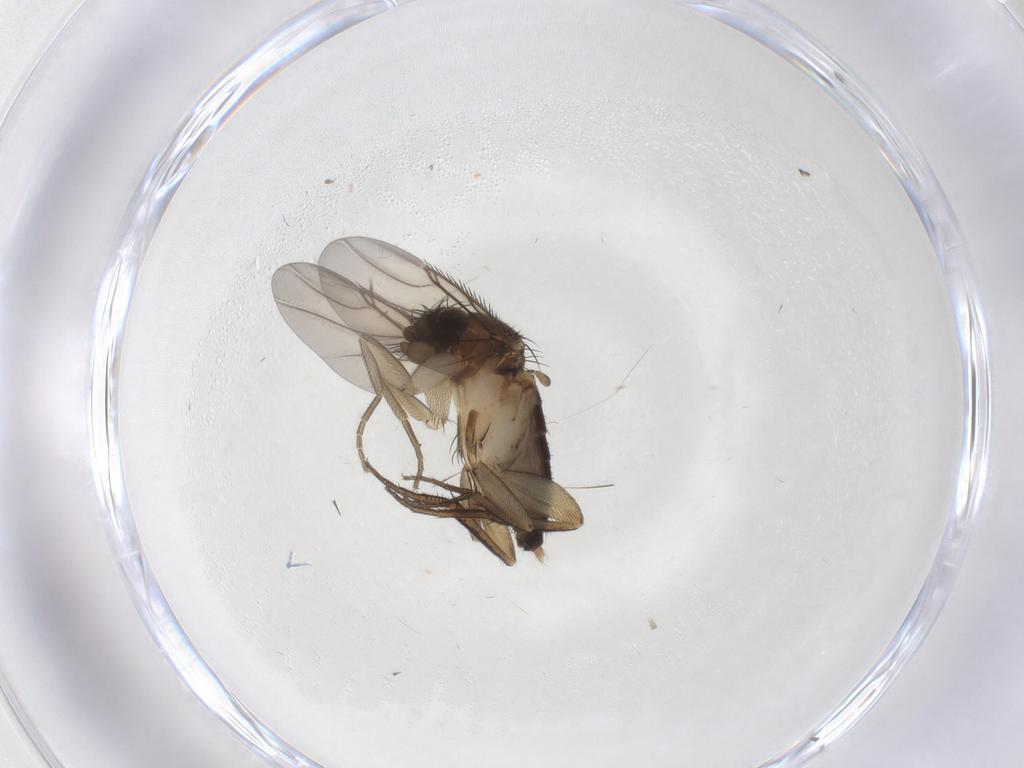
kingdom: Animalia
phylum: Arthropoda
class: Insecta
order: Diptera
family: Phoridae
